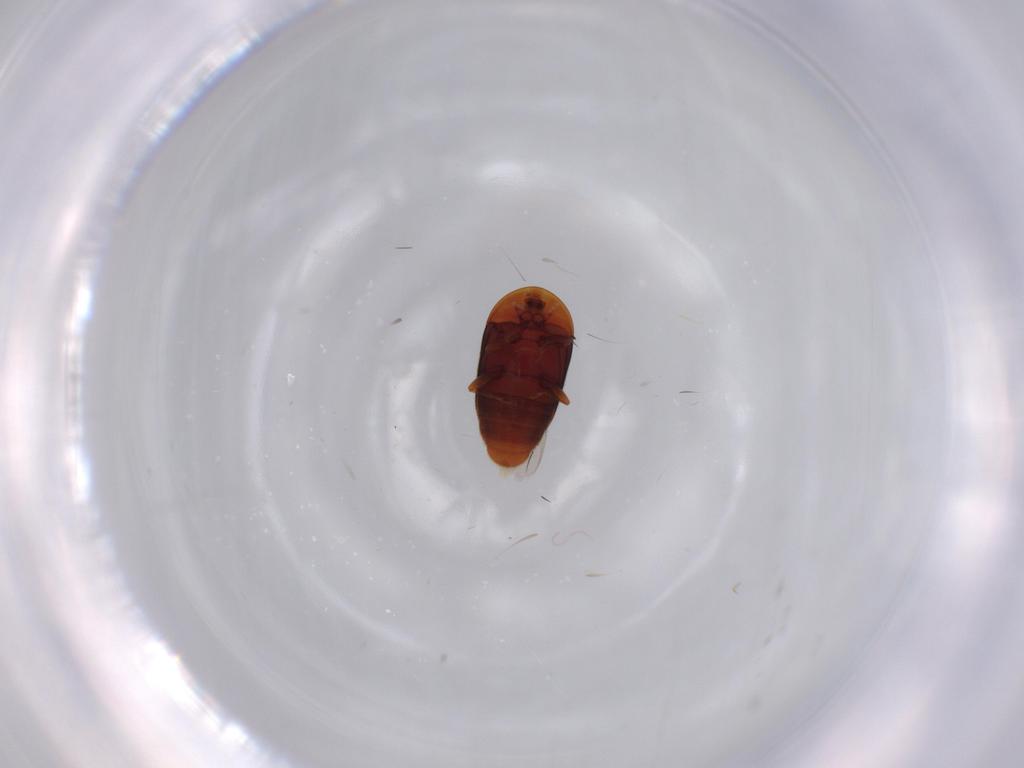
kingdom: Animalia
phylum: Arthropoda
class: Insecta
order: Coleoptera
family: Corylophidae
